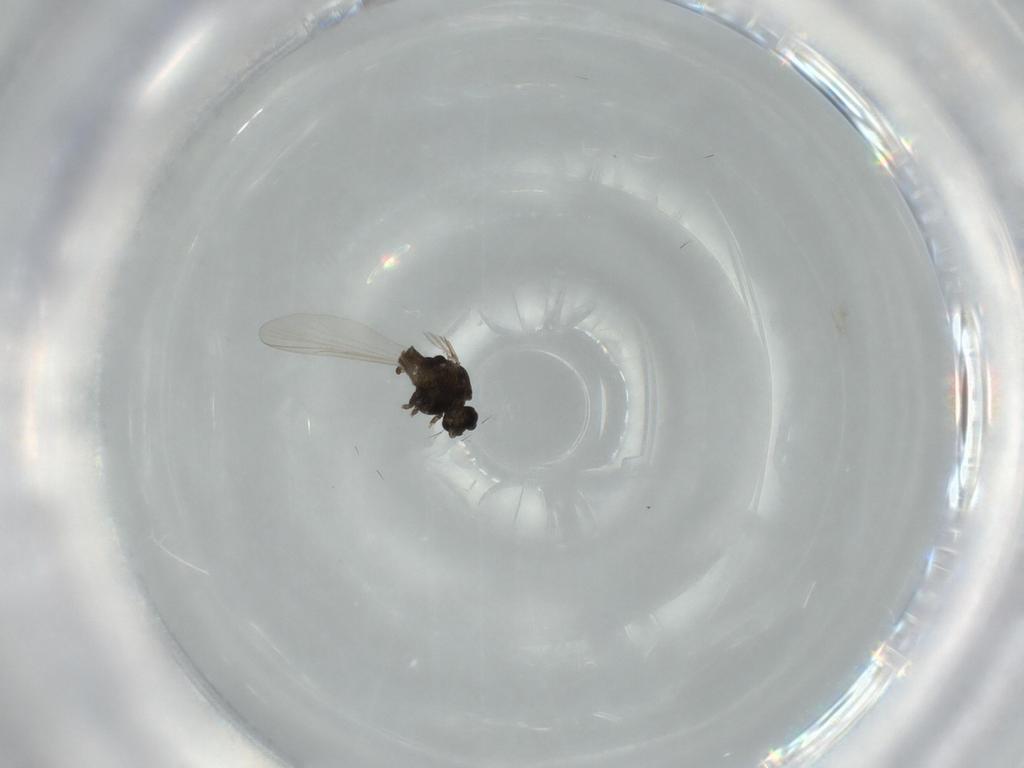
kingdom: Animalia
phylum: Arthropoda
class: Insecta
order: Diptera
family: Chironomidae
